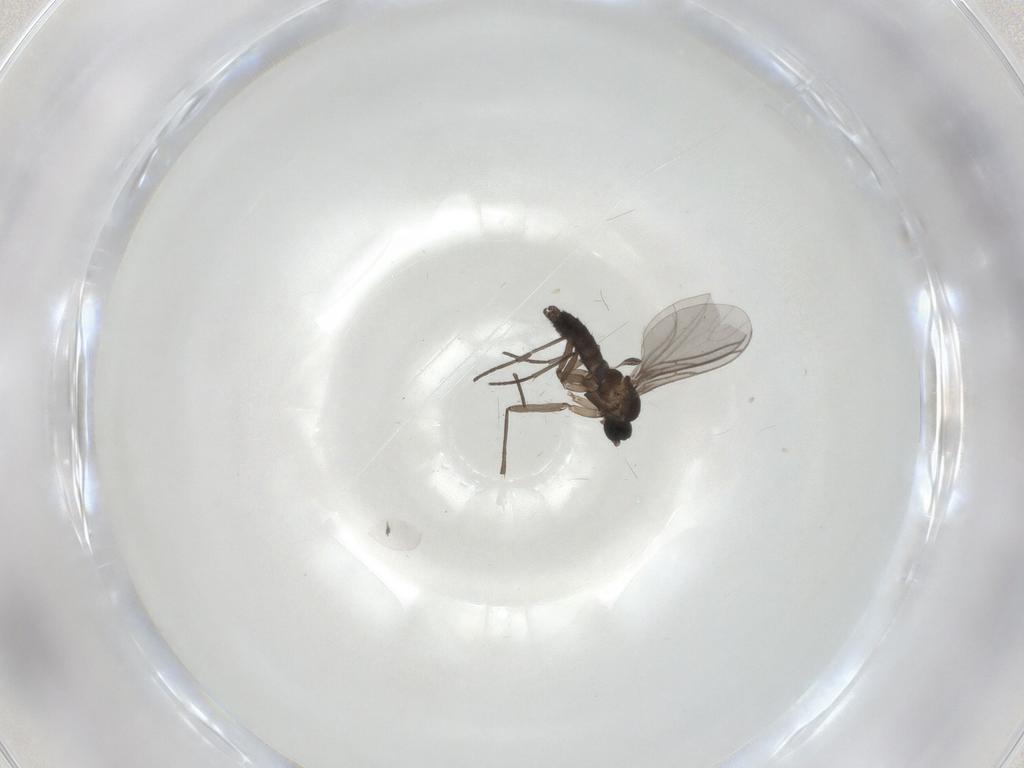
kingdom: Animalia
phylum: Arthropoda
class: Insecta
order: Diptera
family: Cecidomyiidae
